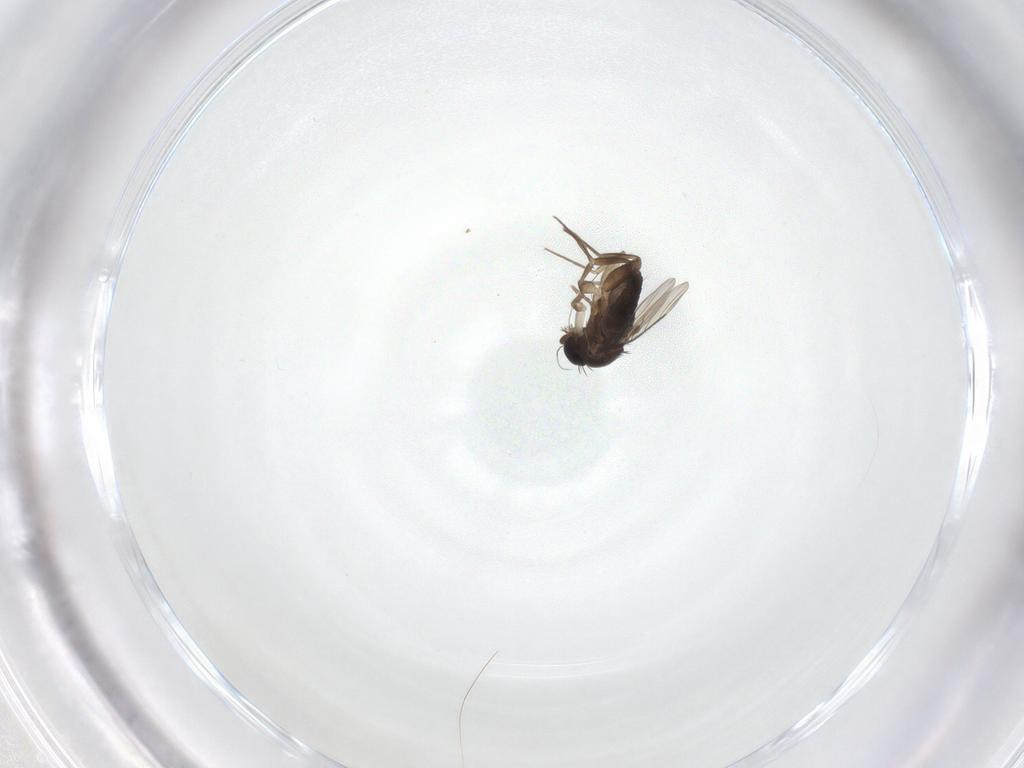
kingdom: Animalia
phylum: Arthropoda
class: Insecta
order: Diptera
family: Phoridae
